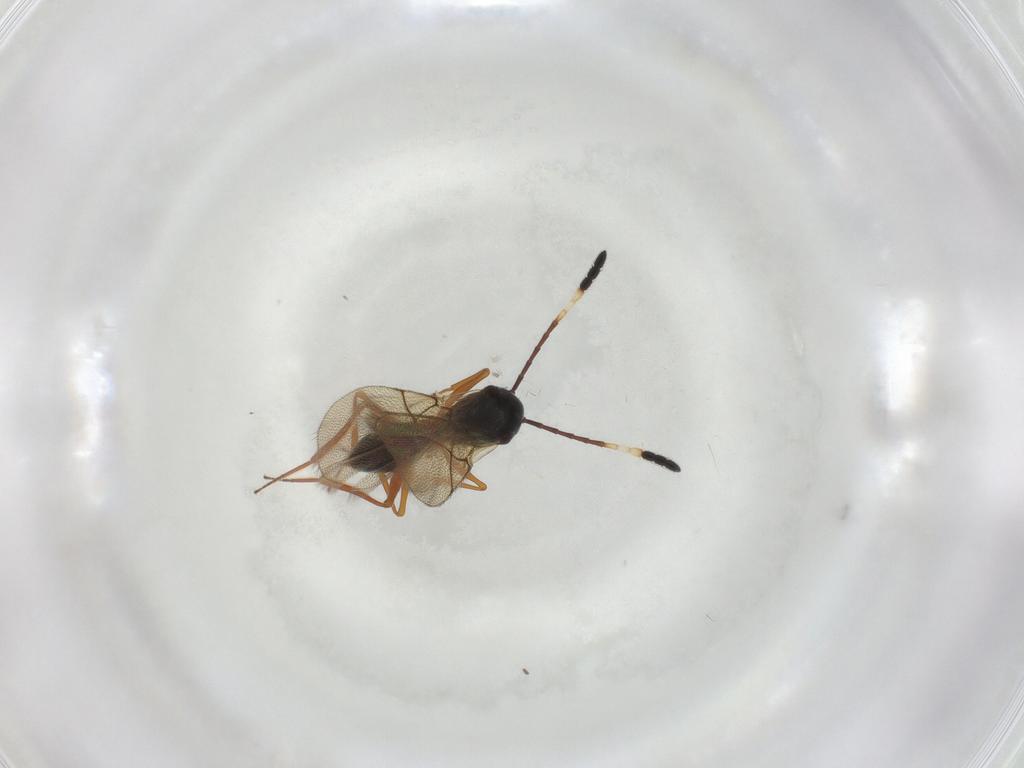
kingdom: Animalia
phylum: Arthropoda
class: Insecta
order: Hymenoptera
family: Figitidae
